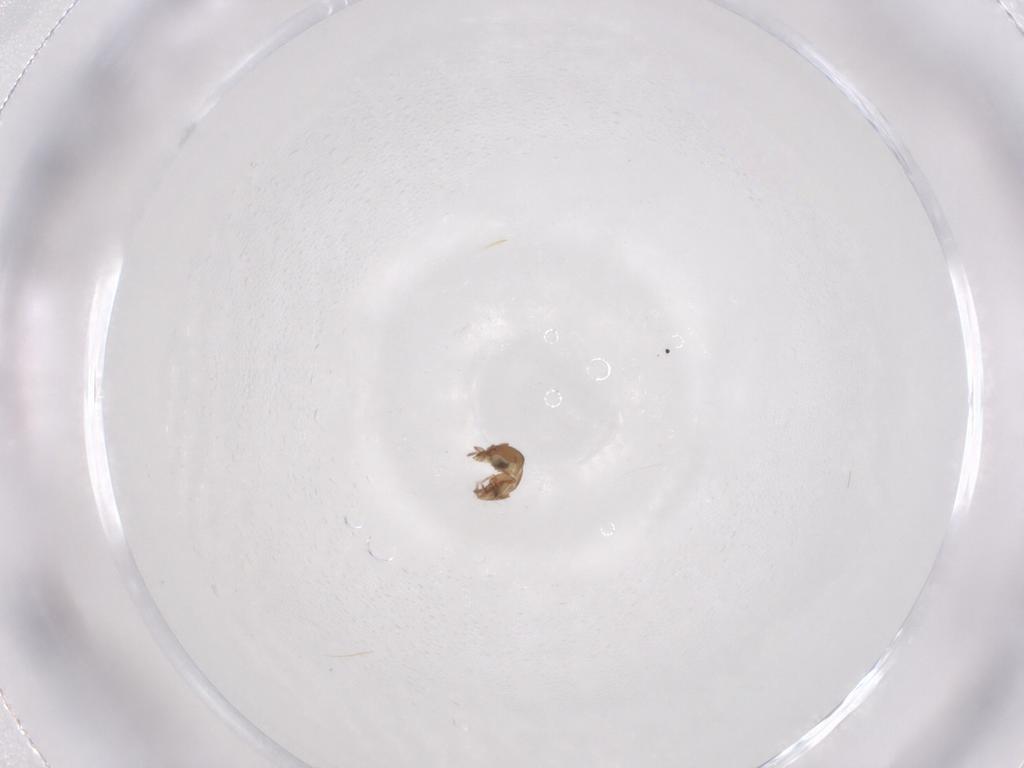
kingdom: Animalia
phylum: Arthropoda
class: Arachnida
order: Sarcoptiformes
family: Oribatulidae
